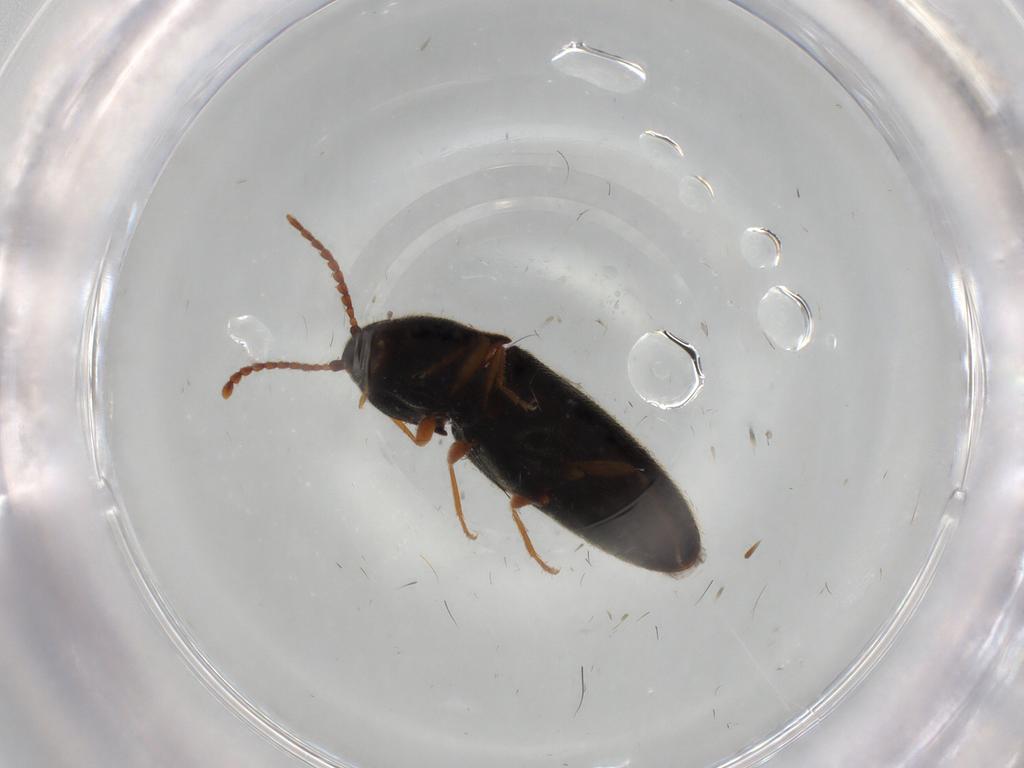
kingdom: Animalia
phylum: Arthropoda
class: Insecta
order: Coleoptera
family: Elateridae
